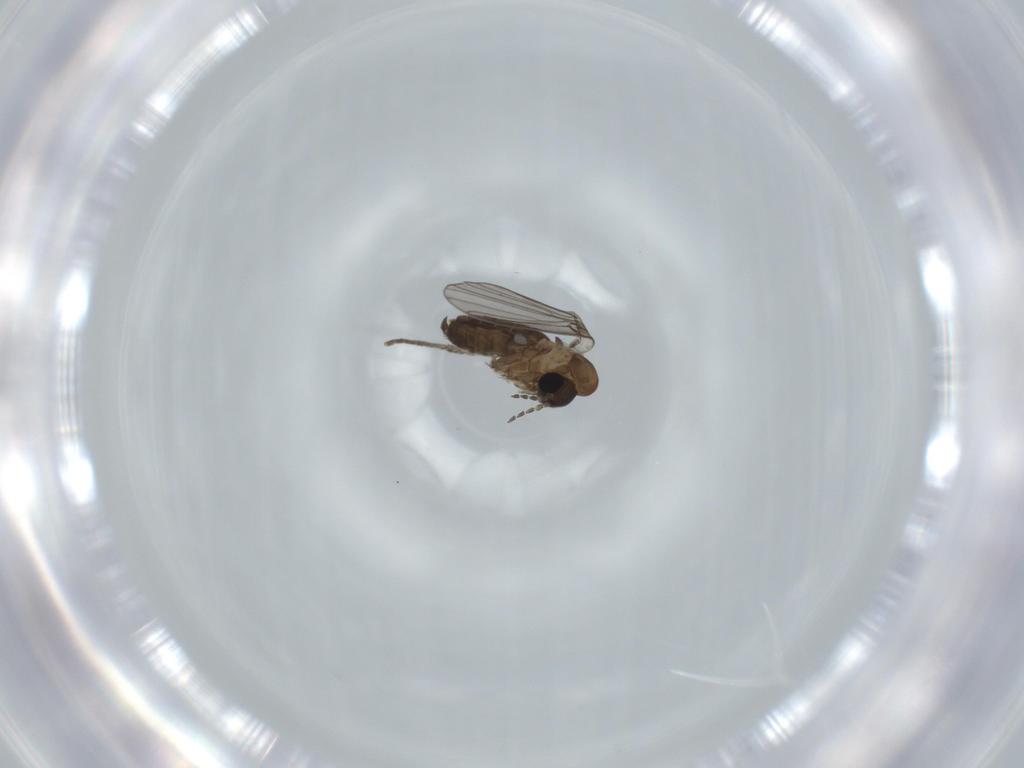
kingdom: Animalia
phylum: Arthropoda
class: Insecta
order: Diptera
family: Psychodidae
